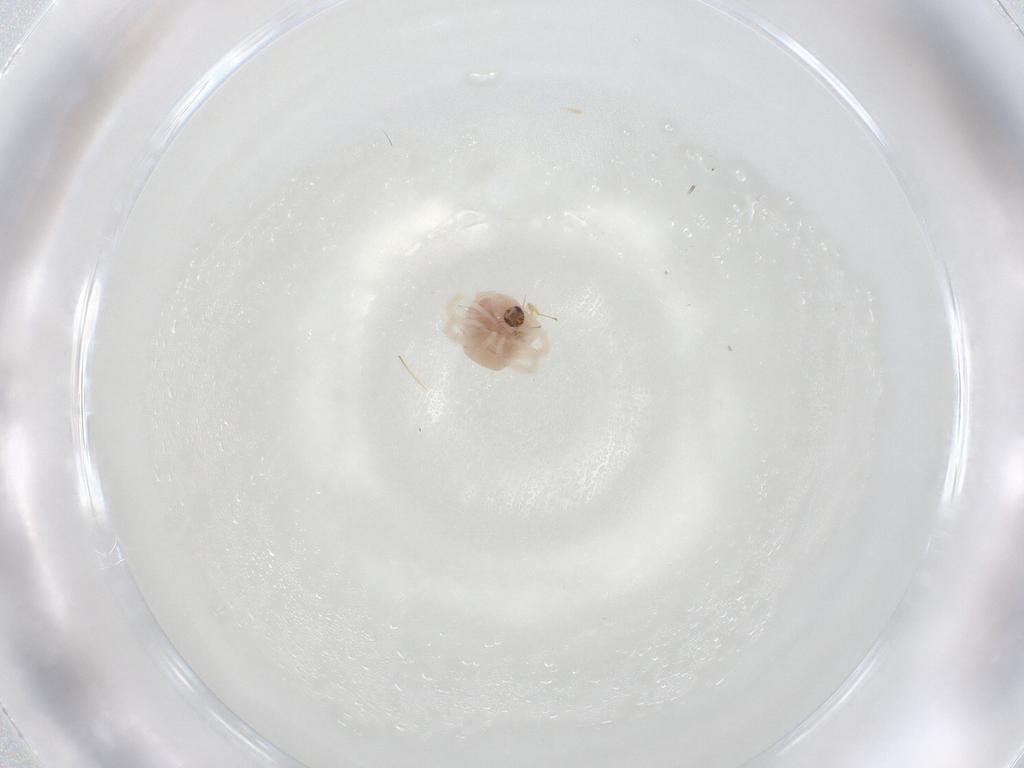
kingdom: Animalia
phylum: Arthropoda
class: Arachnida
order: Trombidiformes
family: Anystidae
